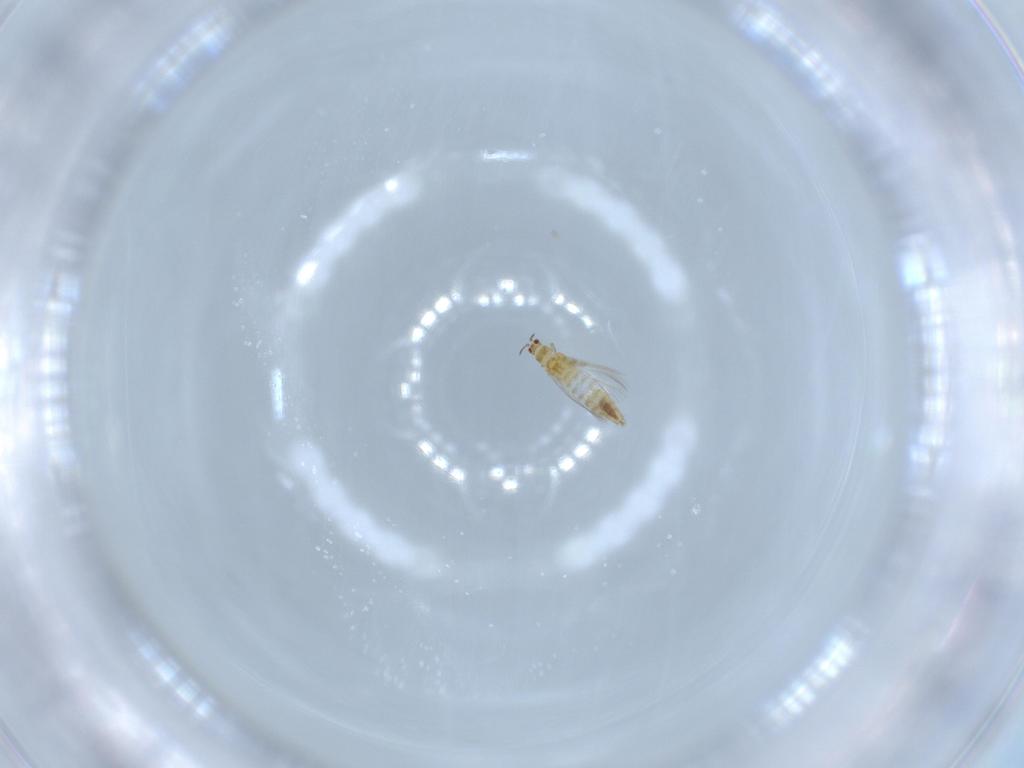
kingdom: Animalia
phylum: Arthropoda
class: Insecta
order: Thysanoptera
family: Thripidae
